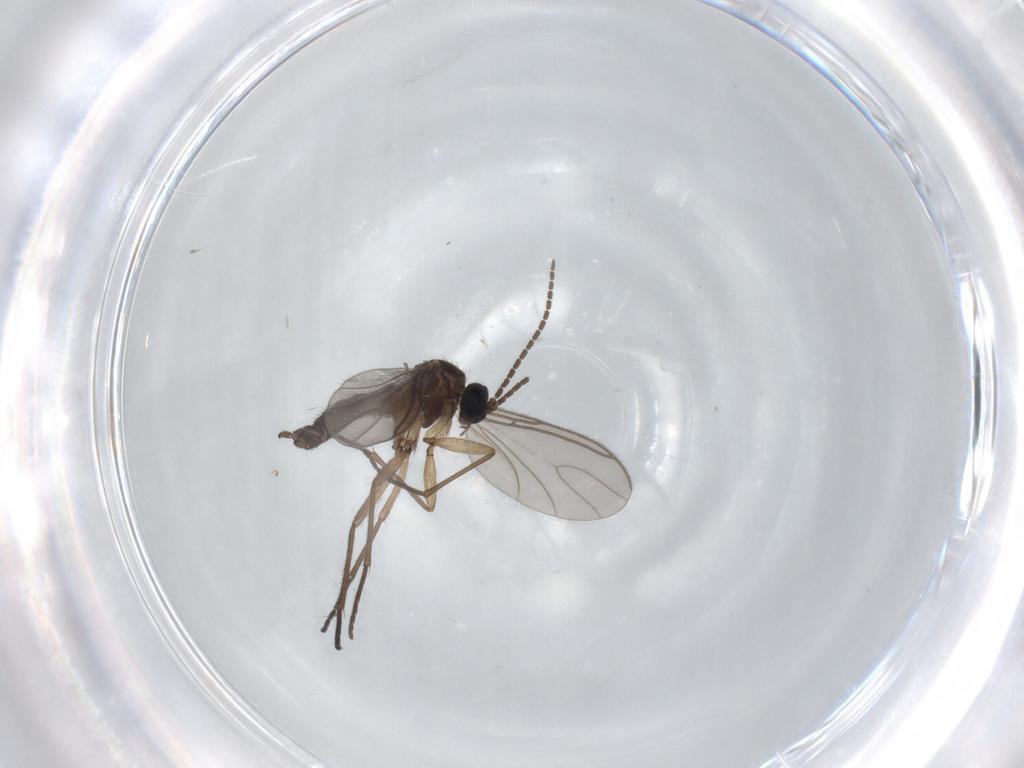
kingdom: Animalia
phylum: Arthropoda
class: Insecta
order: Diptera
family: Sciaridae
